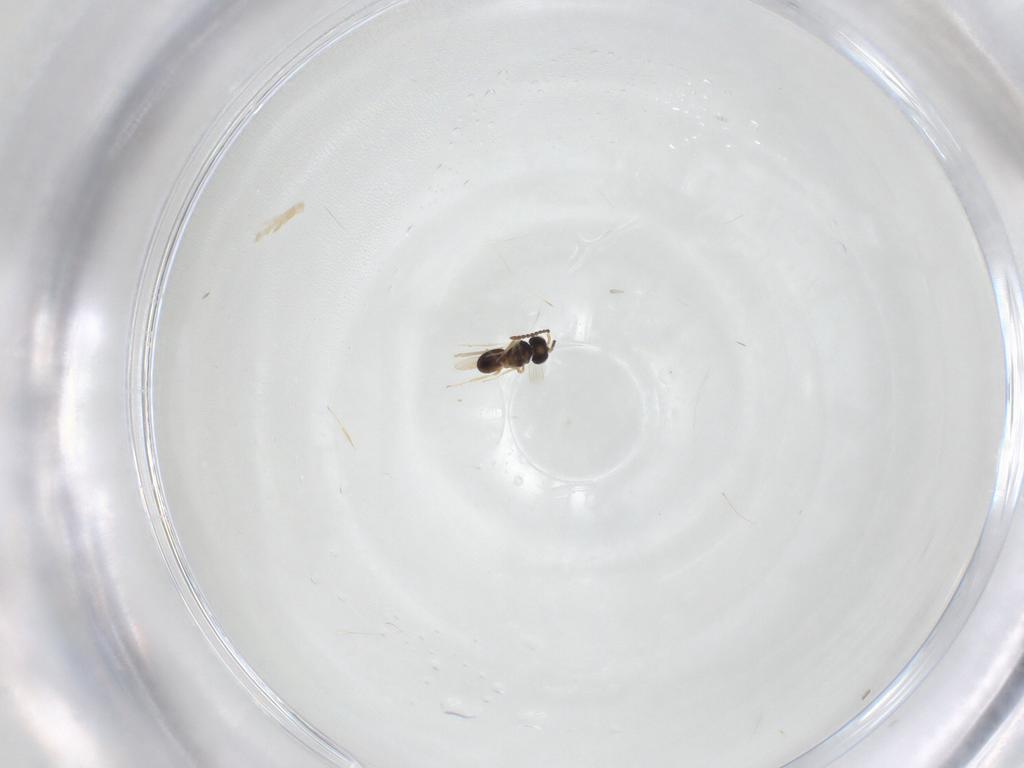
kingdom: Animalia
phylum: Arthropoda
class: Insecta
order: Hymenoptera
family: Scelionidae
